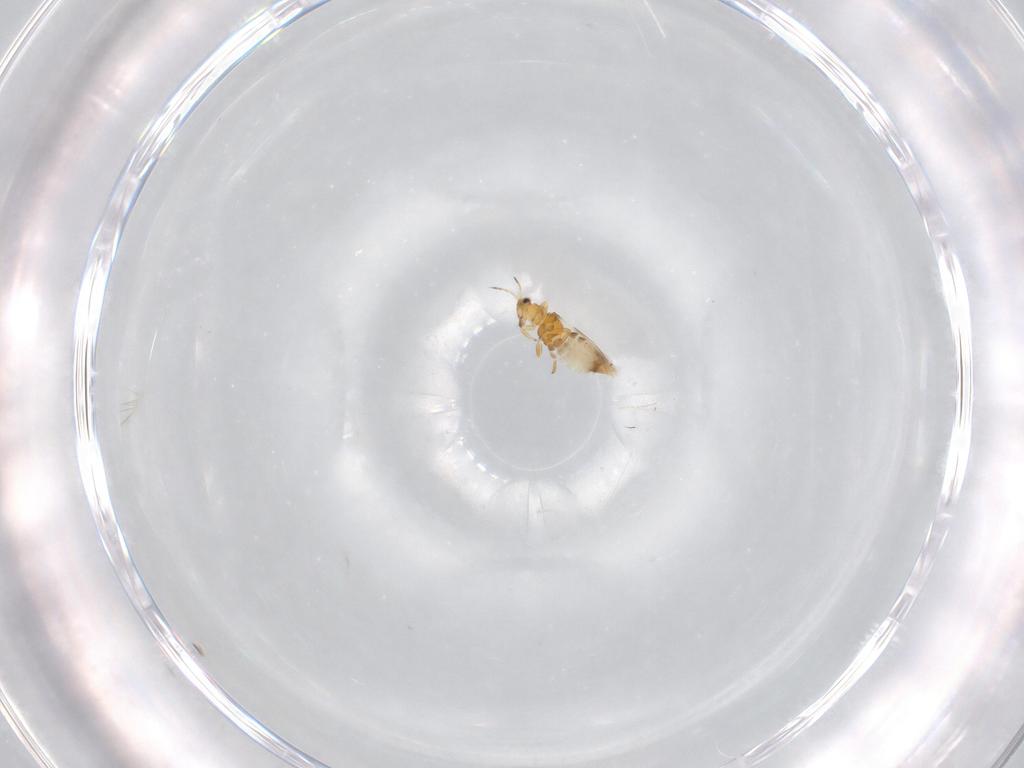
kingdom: Animalia
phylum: Arthropoda
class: Insecta
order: Thysanoptera
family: Thripidae
